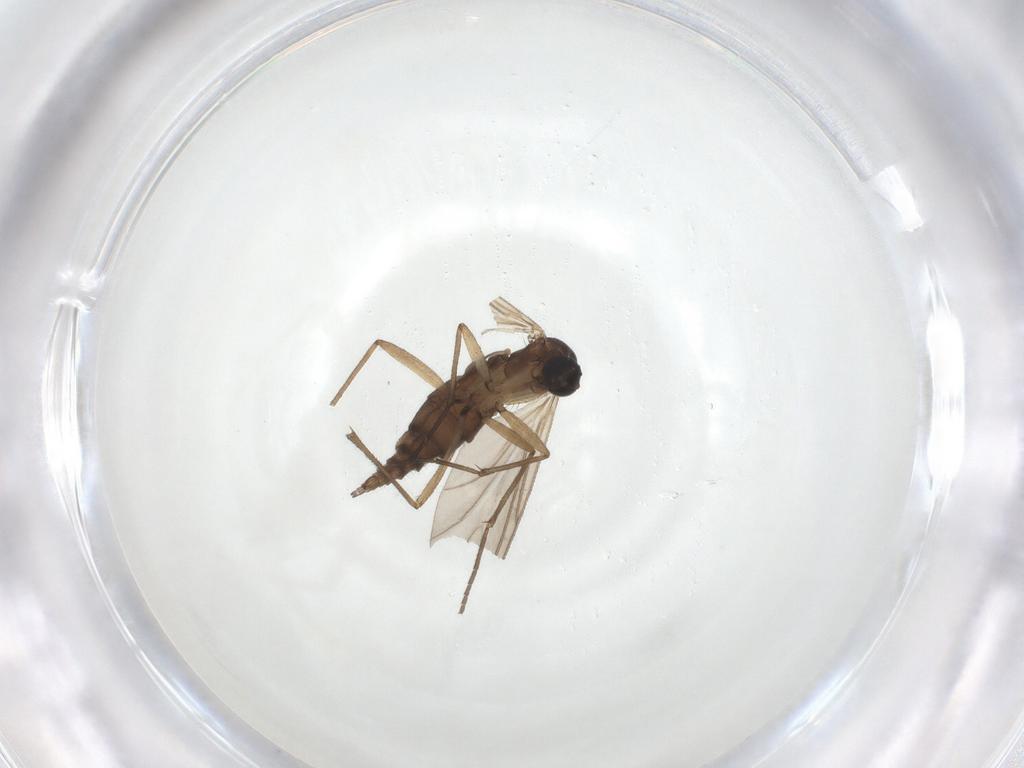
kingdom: Animalia
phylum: Arthropoda
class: Insecta
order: Diptera
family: Sciaridae
